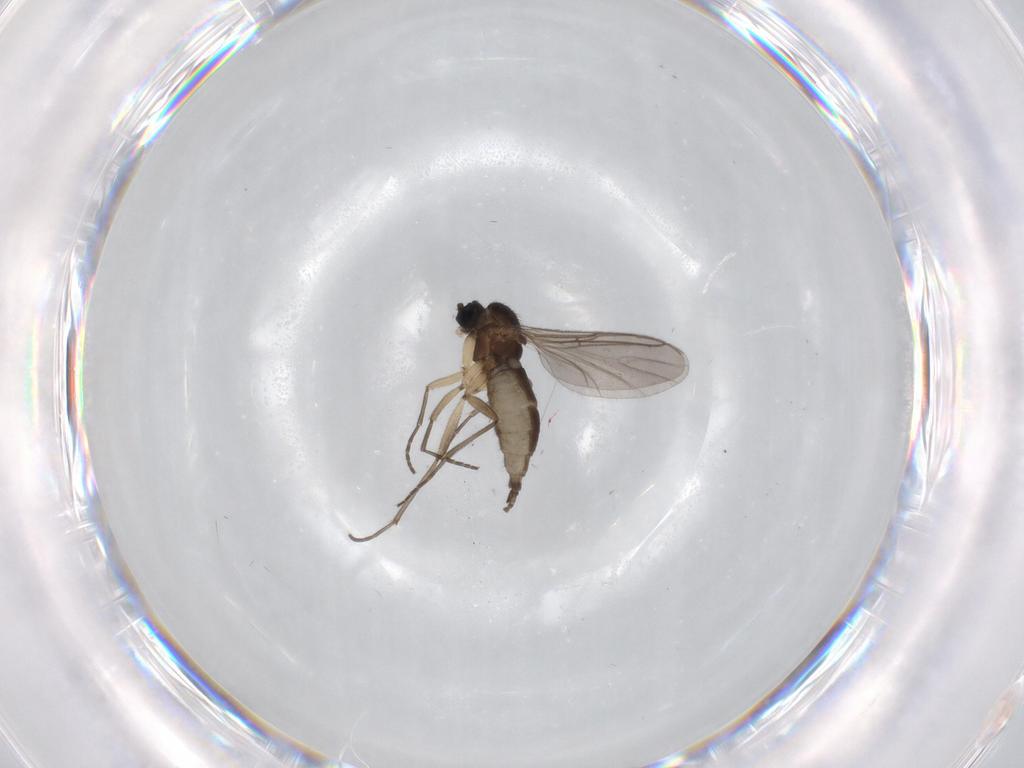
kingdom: Animalia
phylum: Arthropoda
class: Insecta
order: Diptera
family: Sciaridae
